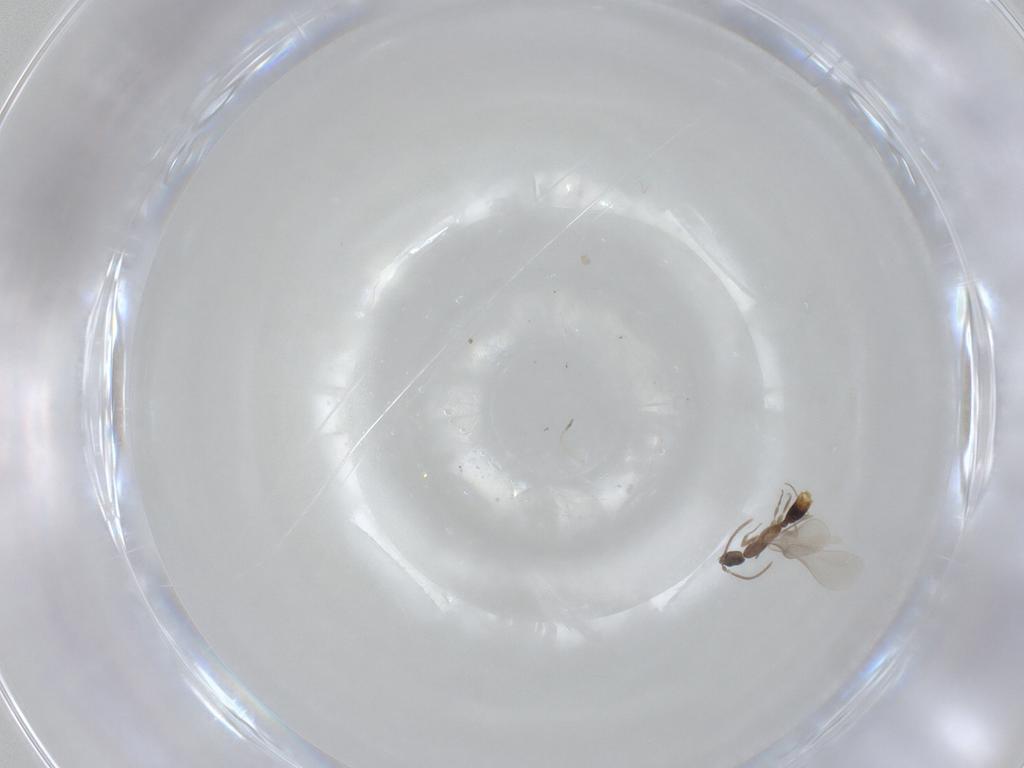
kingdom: Animalia
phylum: Arthropoda
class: Insecta
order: Hymenoptera
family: Formicidae
